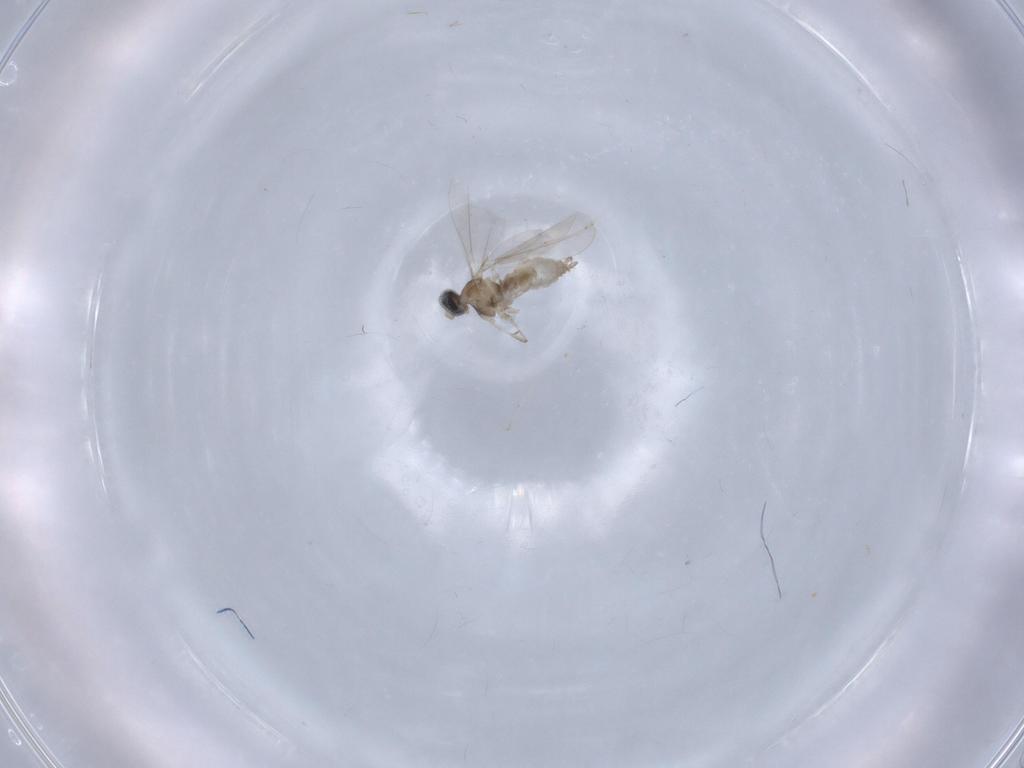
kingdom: Animalia
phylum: Arthropoda
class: Insecta
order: Diptera
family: Cecidomyiidae
